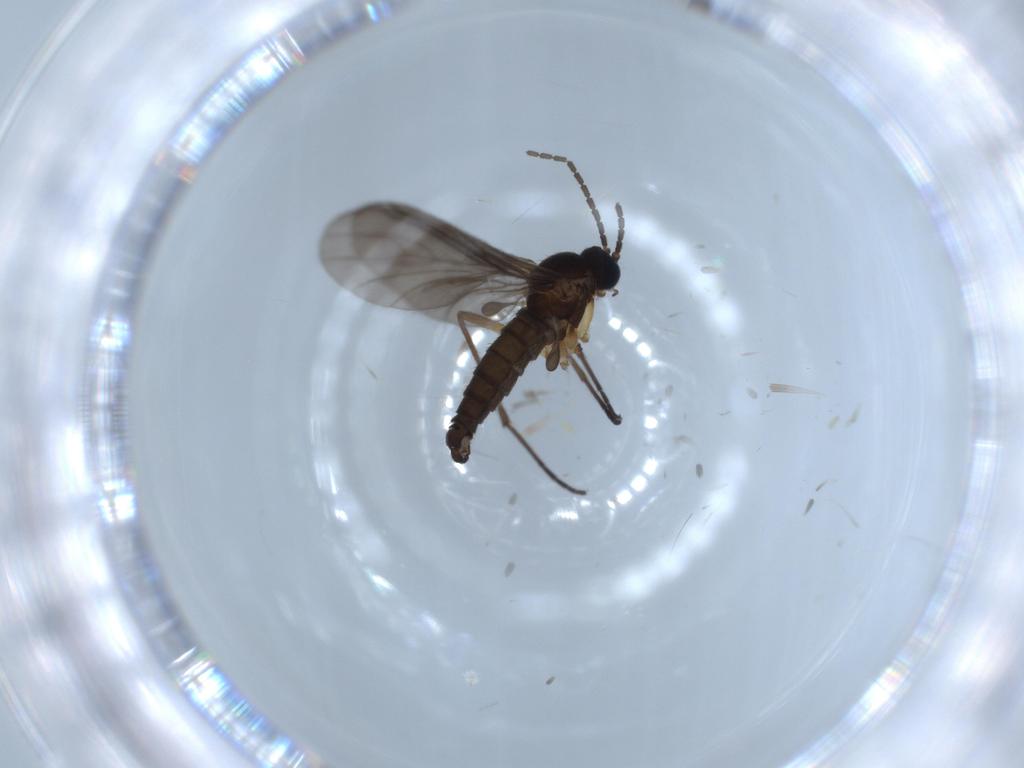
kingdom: Animalia
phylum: Arthropoda
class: Insecta
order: Diptera
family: Sciaridae
